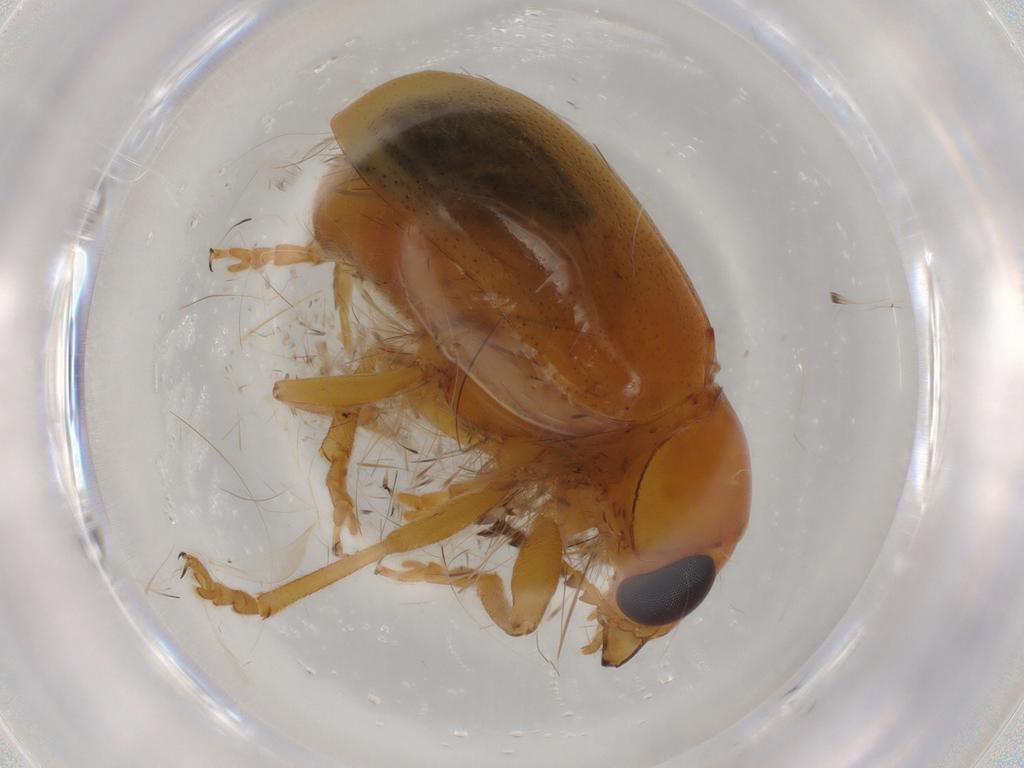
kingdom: Animalia
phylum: Arthropoda
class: Insecta
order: Coleoptera
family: Chrysomelidae
